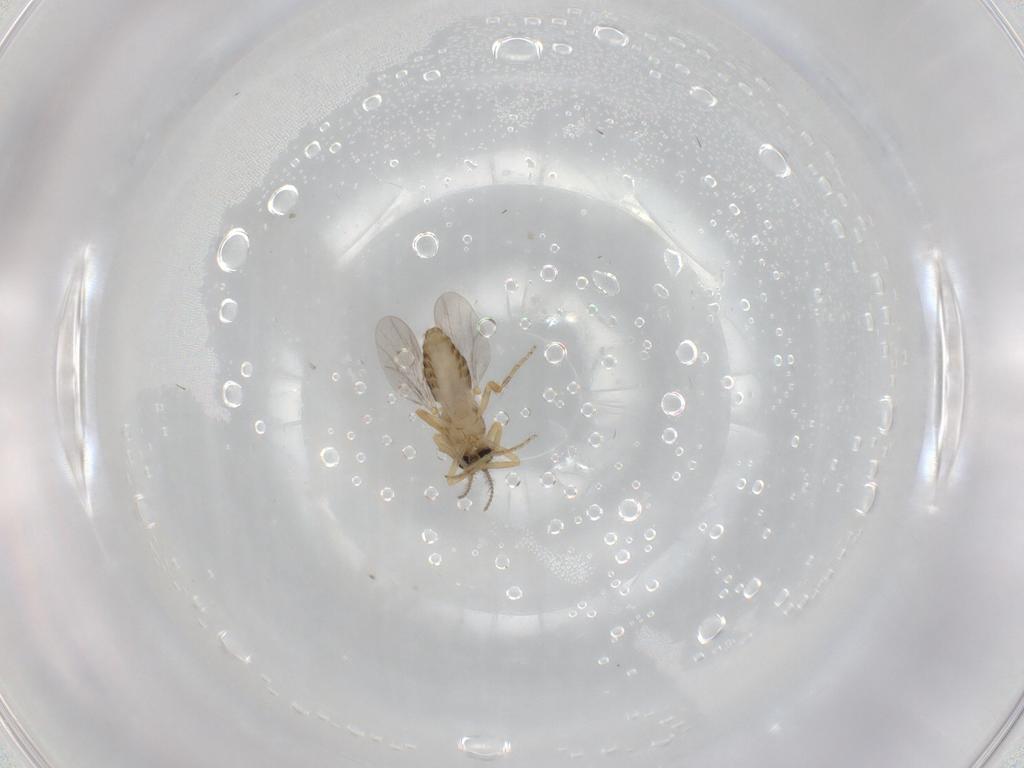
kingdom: Animalia
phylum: Arthropoda
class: Insecta
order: Diptera
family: Ceratopogonidae
